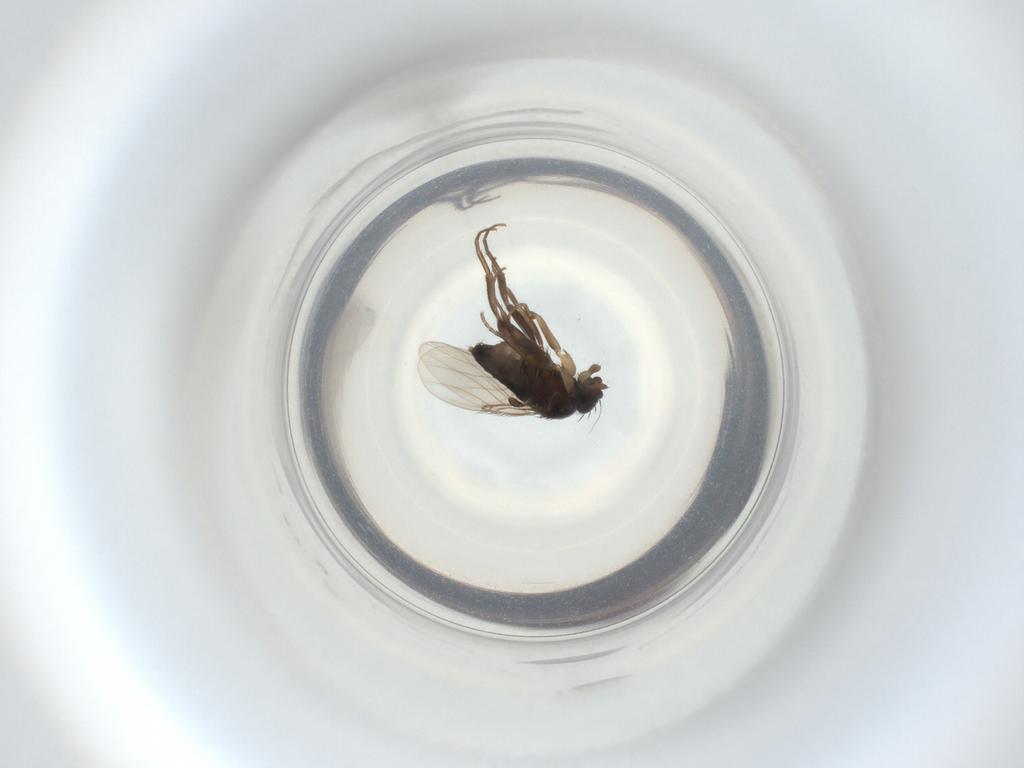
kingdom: Animalia
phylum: Arthropoda
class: Insecta
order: Diptera
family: Phoridae
